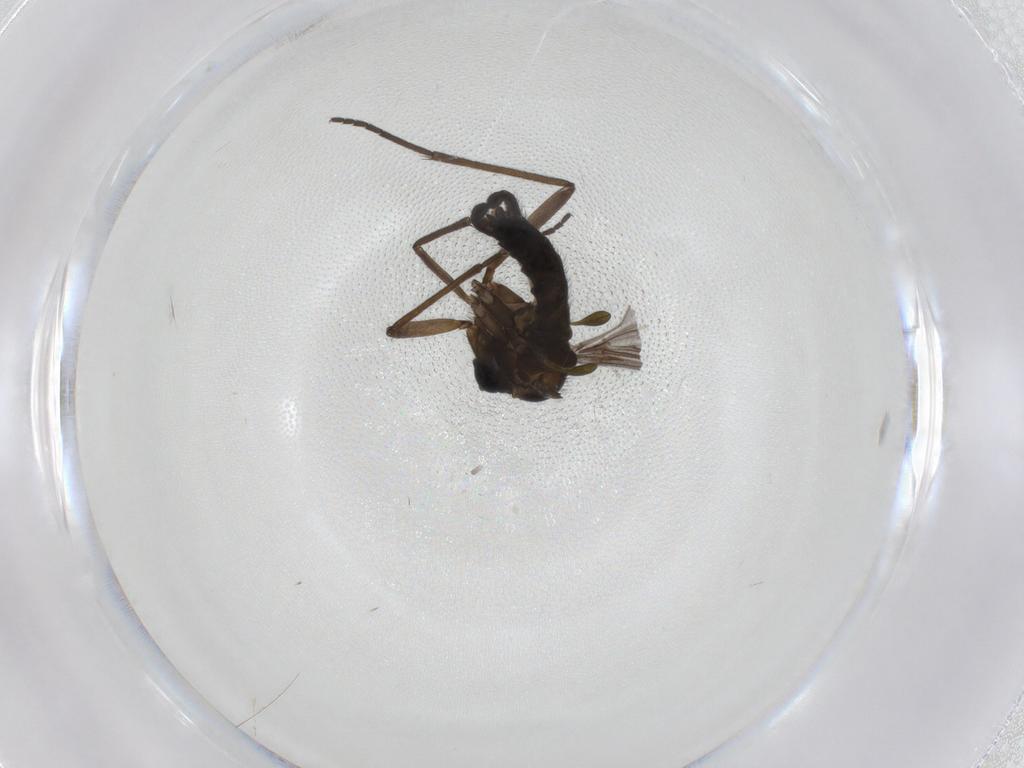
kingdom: Animalia
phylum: Arthropoda
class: Insecta
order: Diptera
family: Sciaridae
